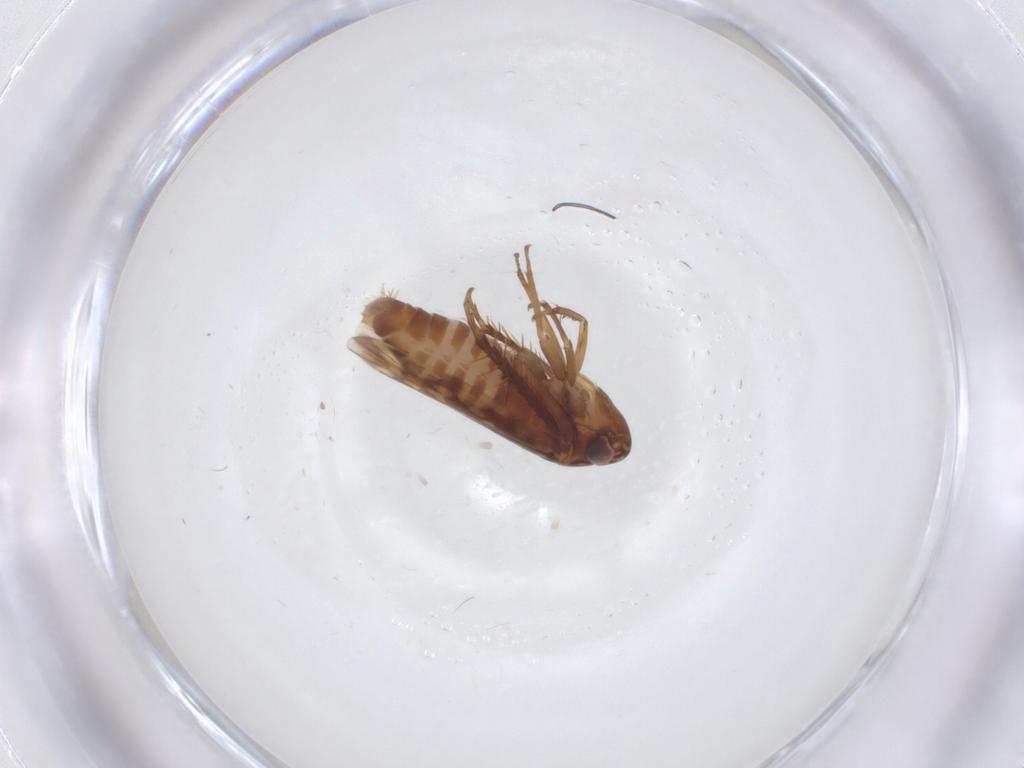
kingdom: Animalia
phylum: Arthropoda
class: Insecta
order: Hemiptera
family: Cicadellidae
